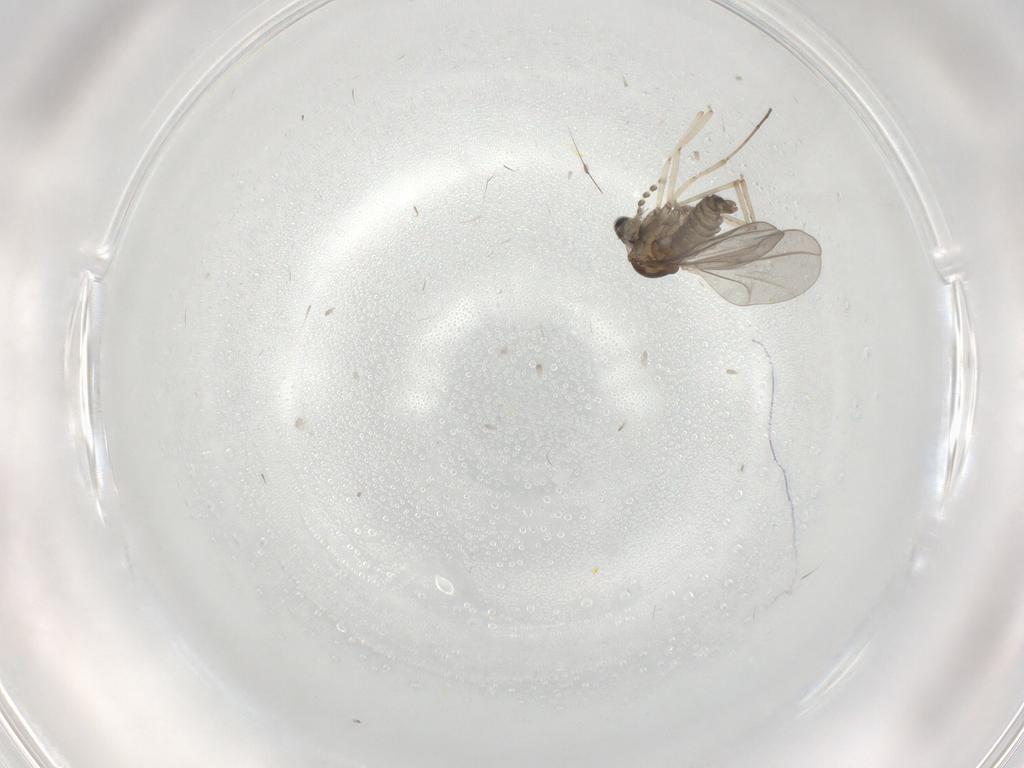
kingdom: Animalia
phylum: Arthropoda
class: Insecta
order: Diptera
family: Cecidomyiidae
